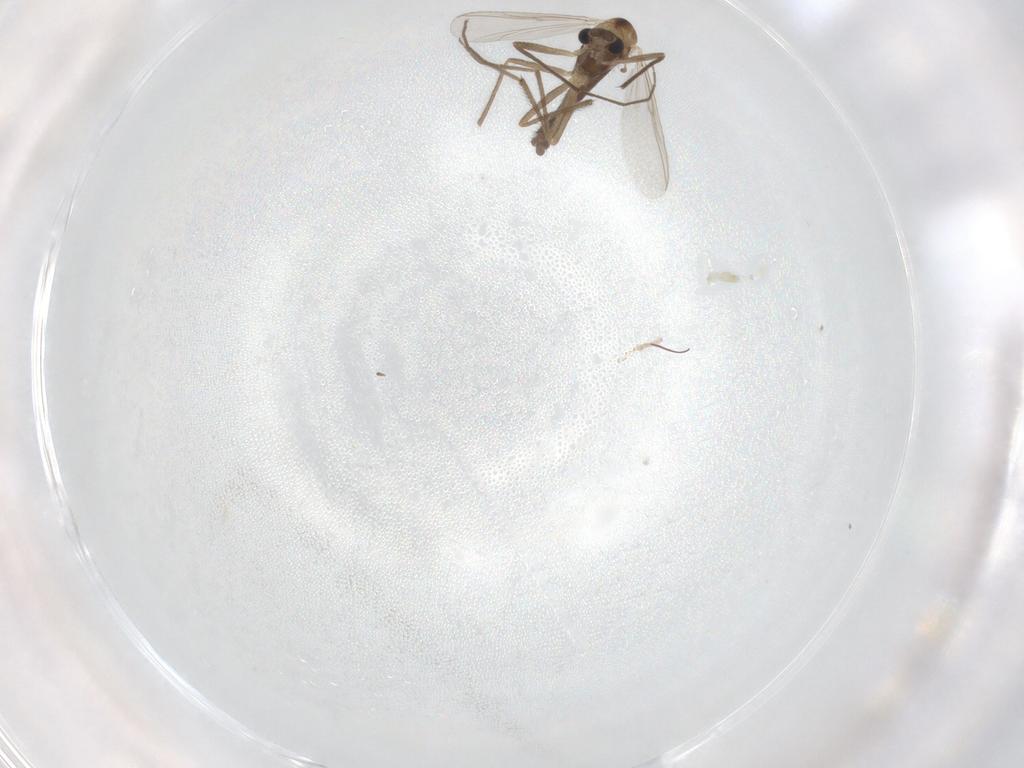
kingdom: Animalia
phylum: Arthropoda
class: Insecta
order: Diptera
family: Chironomidae
